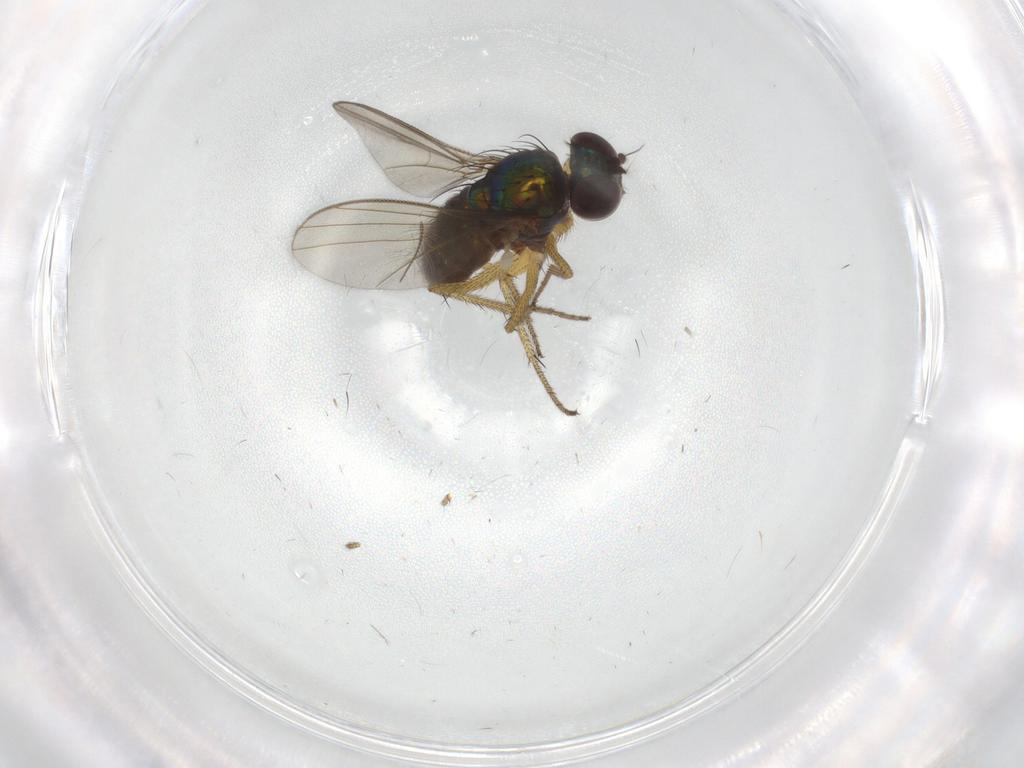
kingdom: Animalia
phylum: Arthropoda
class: Insecta
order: Diptera
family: Dolichopodidae
